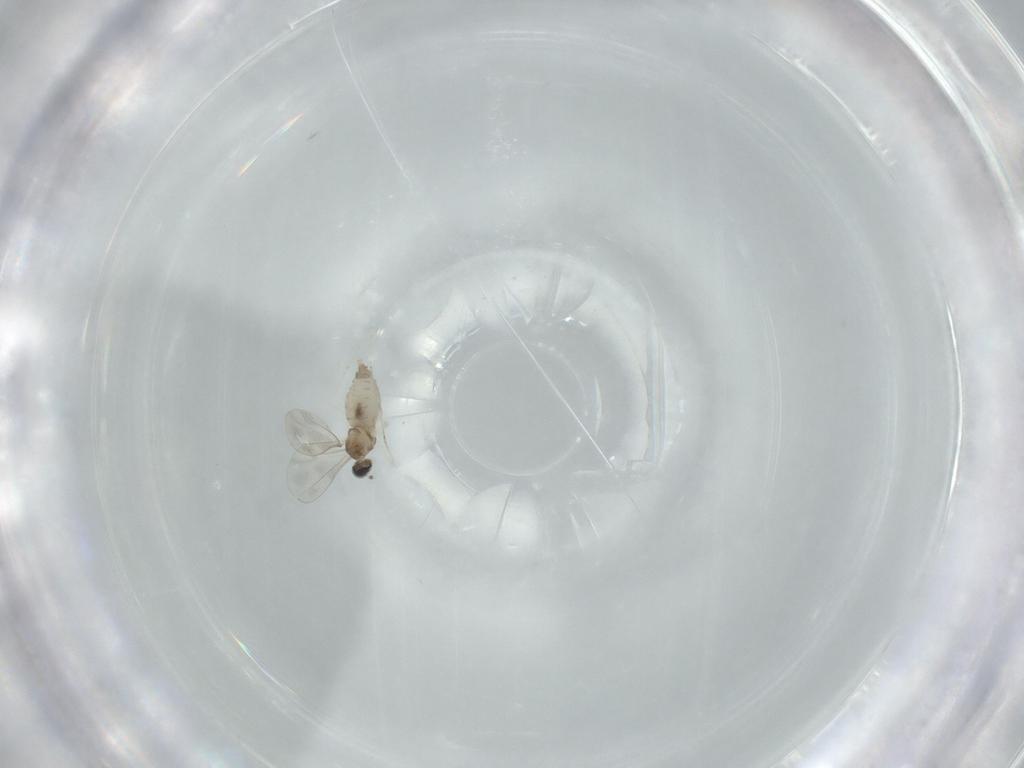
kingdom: Animalia
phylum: Arthropoda
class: Insecta
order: Diptera
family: Cecidomyiidae
